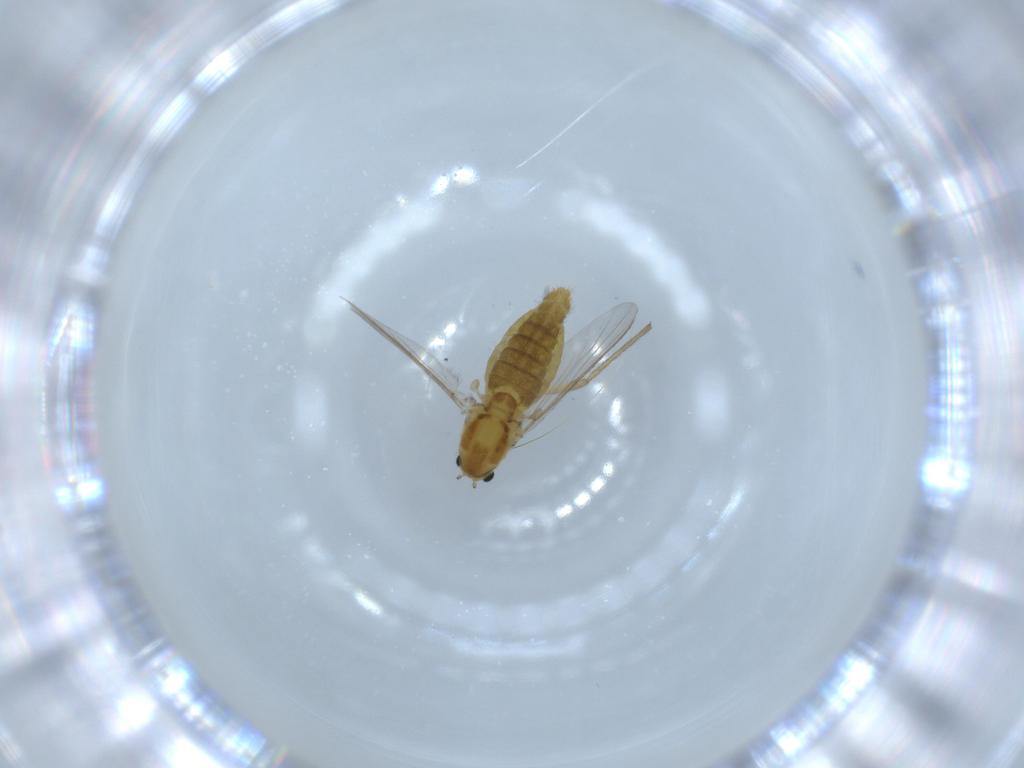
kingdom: Animalia
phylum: Arthropoda
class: Insecta
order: Diptera
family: Chironomidae
